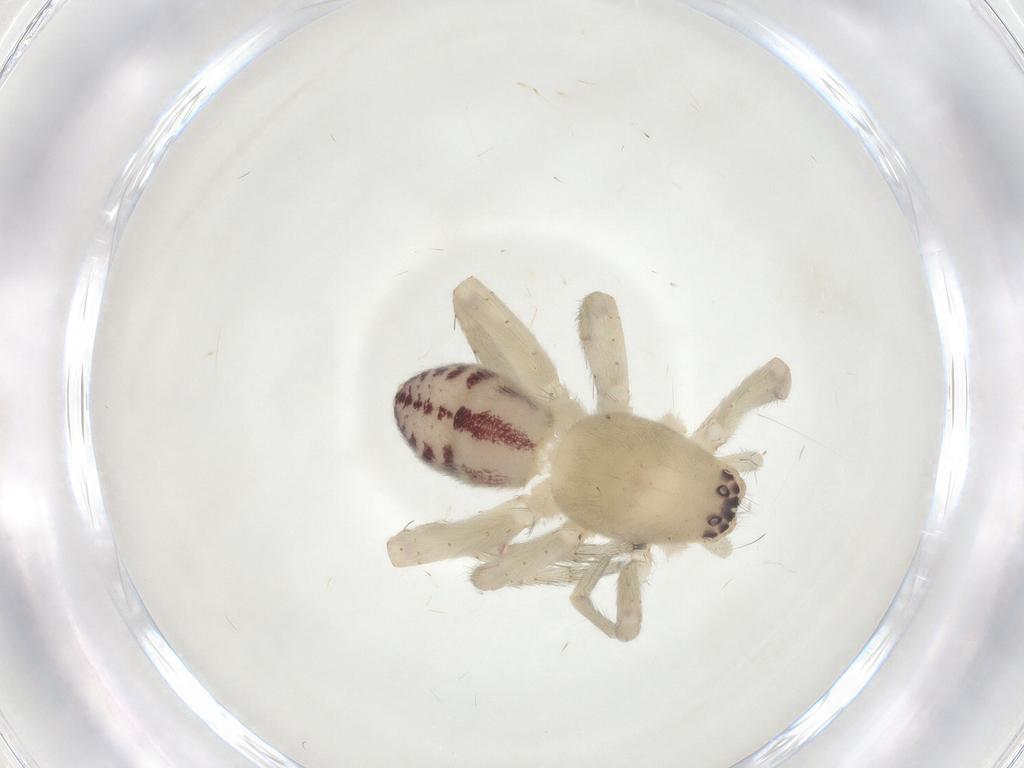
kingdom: Animalia
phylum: Arthropoda
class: Arachnida
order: Araneae
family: Clubionidae
